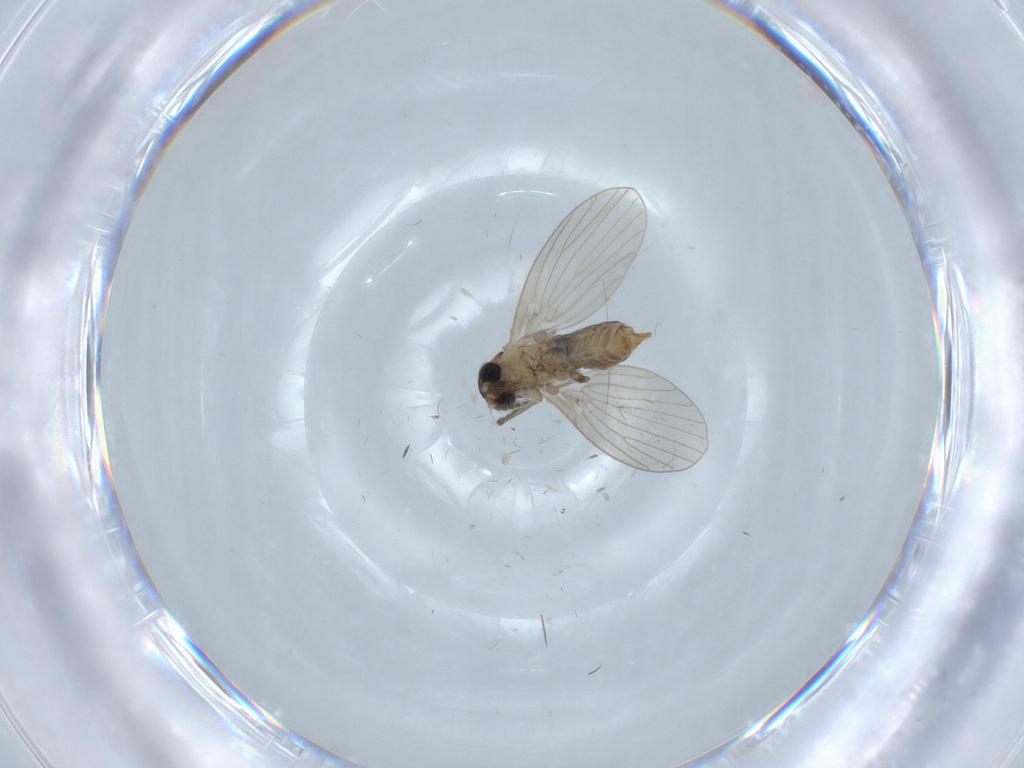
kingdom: Animalia
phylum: Arthropoda
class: Insecta
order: Diptera
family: Psychodidae
